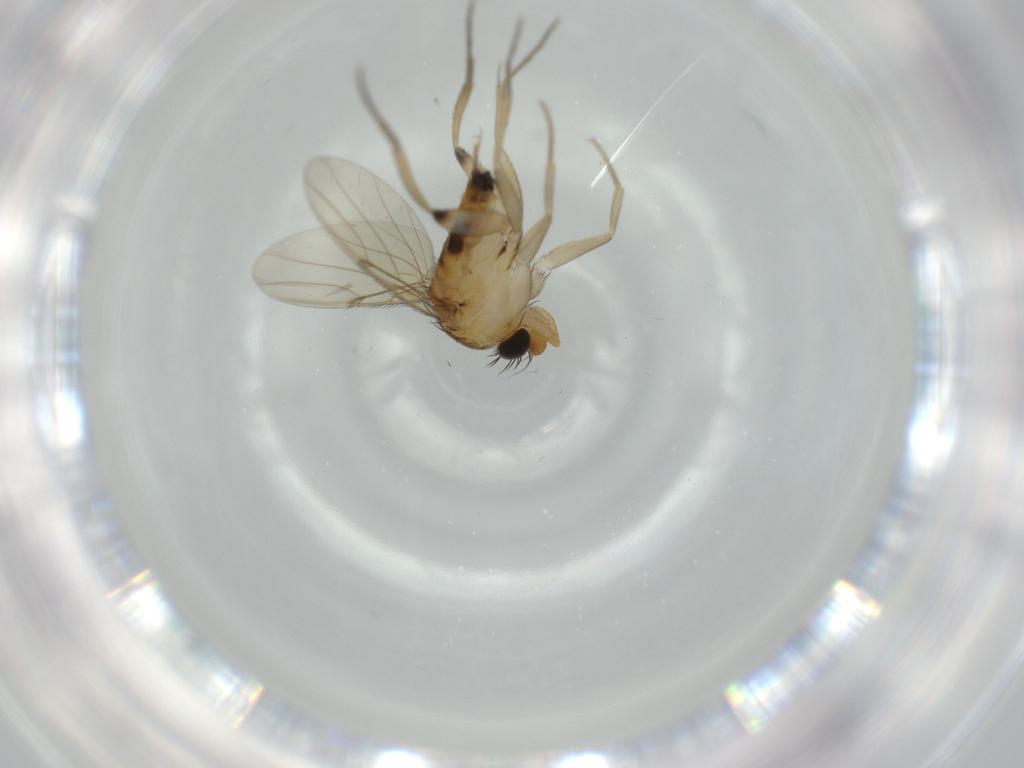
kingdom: Animalia
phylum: Arthropoda
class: Insecta
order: Diptera
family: Phoridae
